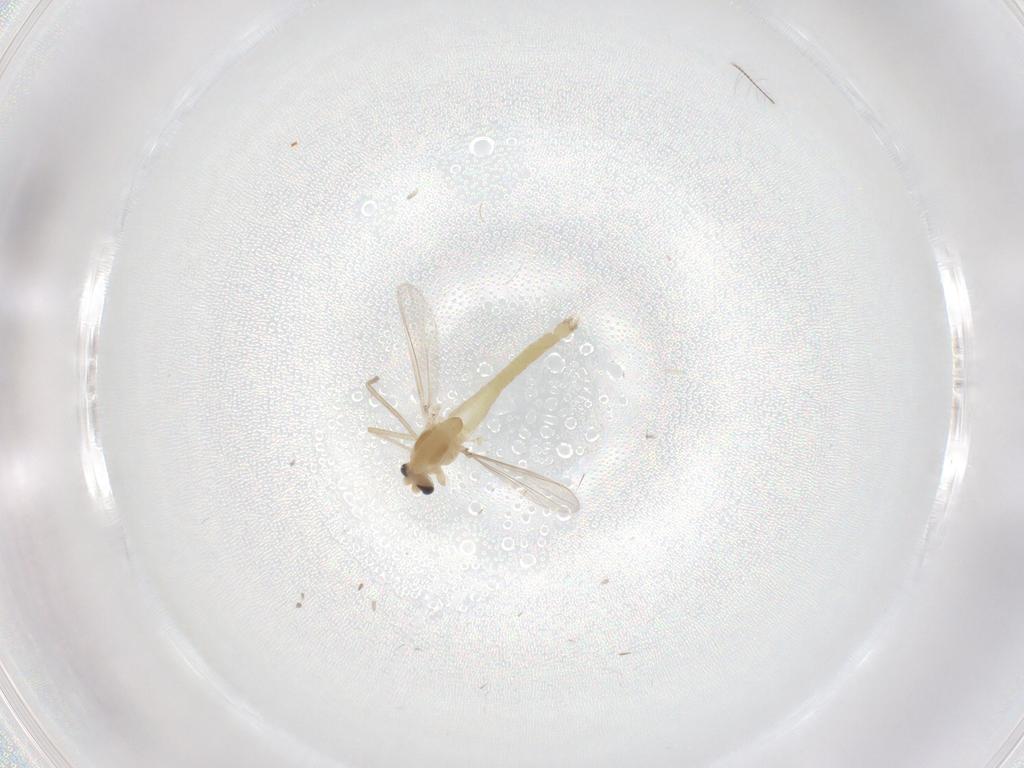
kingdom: Animalia
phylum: Arthropoda
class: Insecta
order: Diptera
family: Chironomidae
